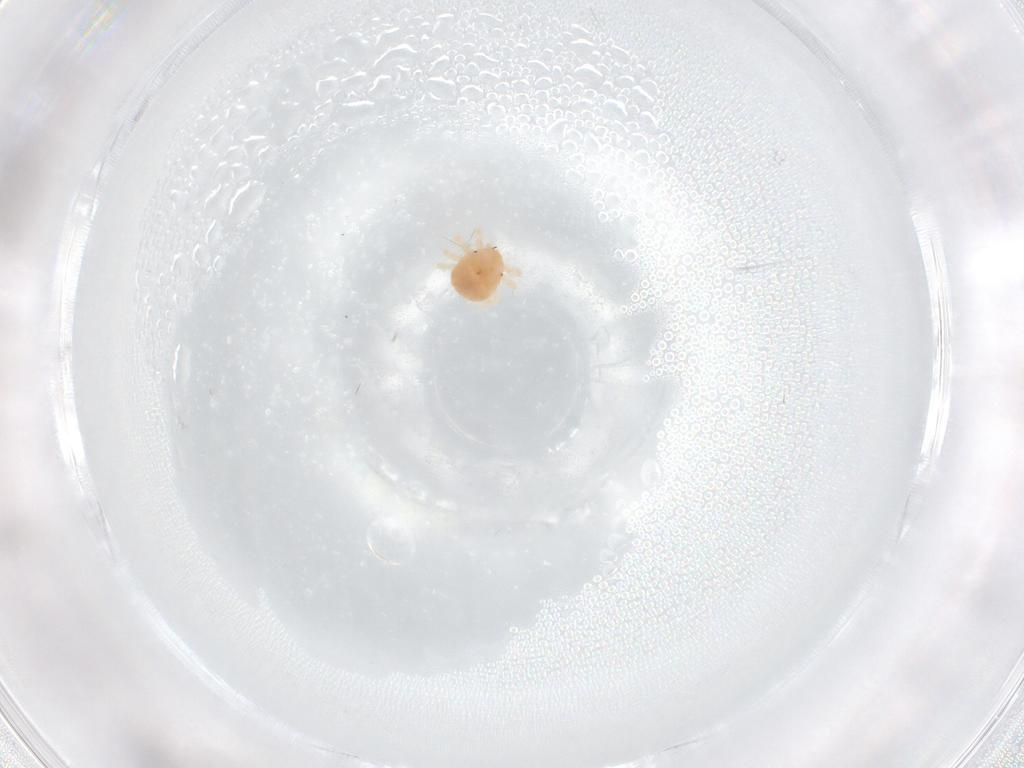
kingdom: Animalia
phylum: Arthropoda
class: Arachnida
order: Trombidiformes
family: Anystidae
